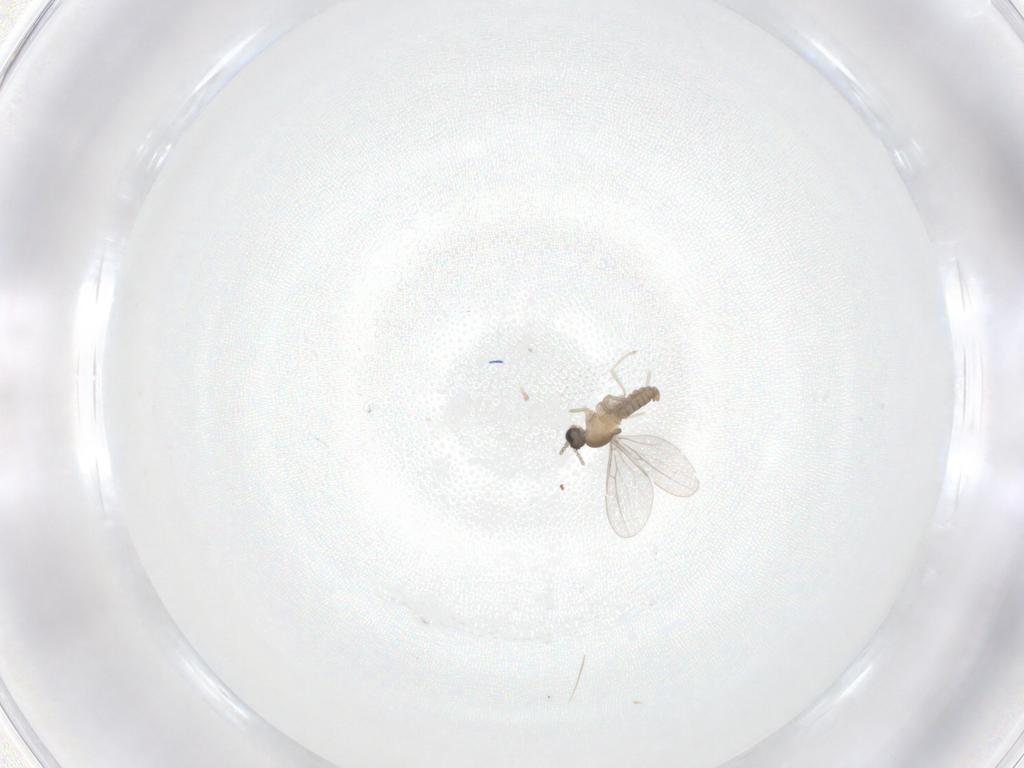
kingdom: Animalia
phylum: Arthropoda
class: Insecta
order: Diptera
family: Cecidomyiidae
